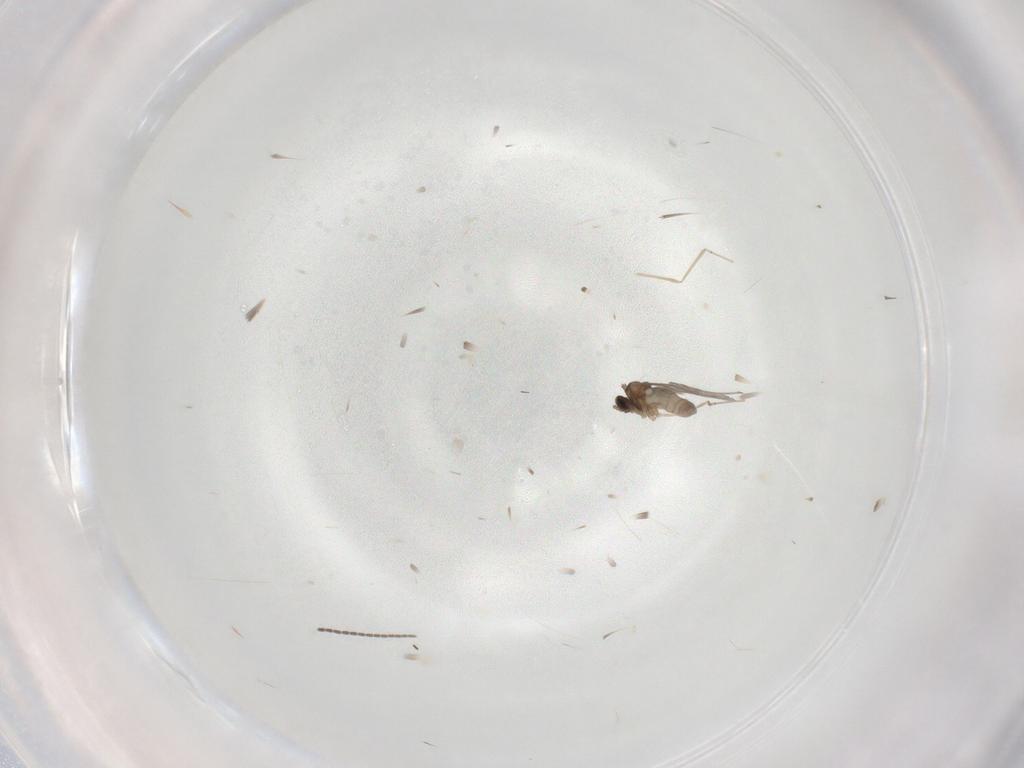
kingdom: Animalia
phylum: Arthropoda
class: Insecta
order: Diptera
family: Cecidomyiidae
